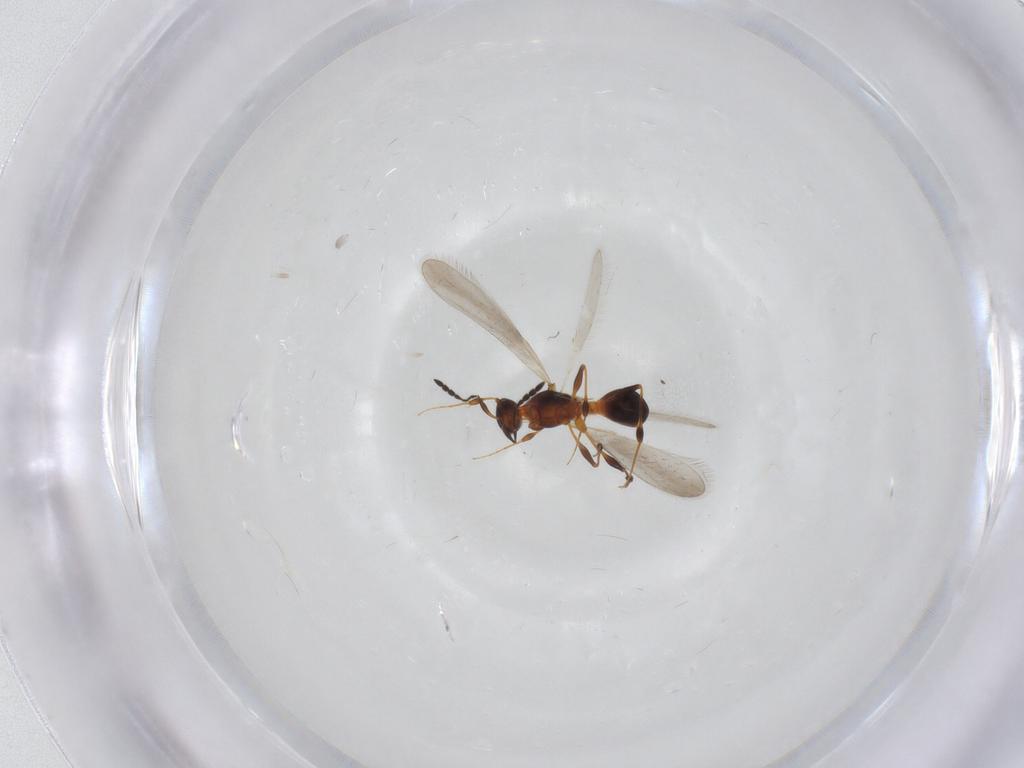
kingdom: Animalia
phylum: Arthropoda
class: Insecta
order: Hymenoptera
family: Platygastridae
